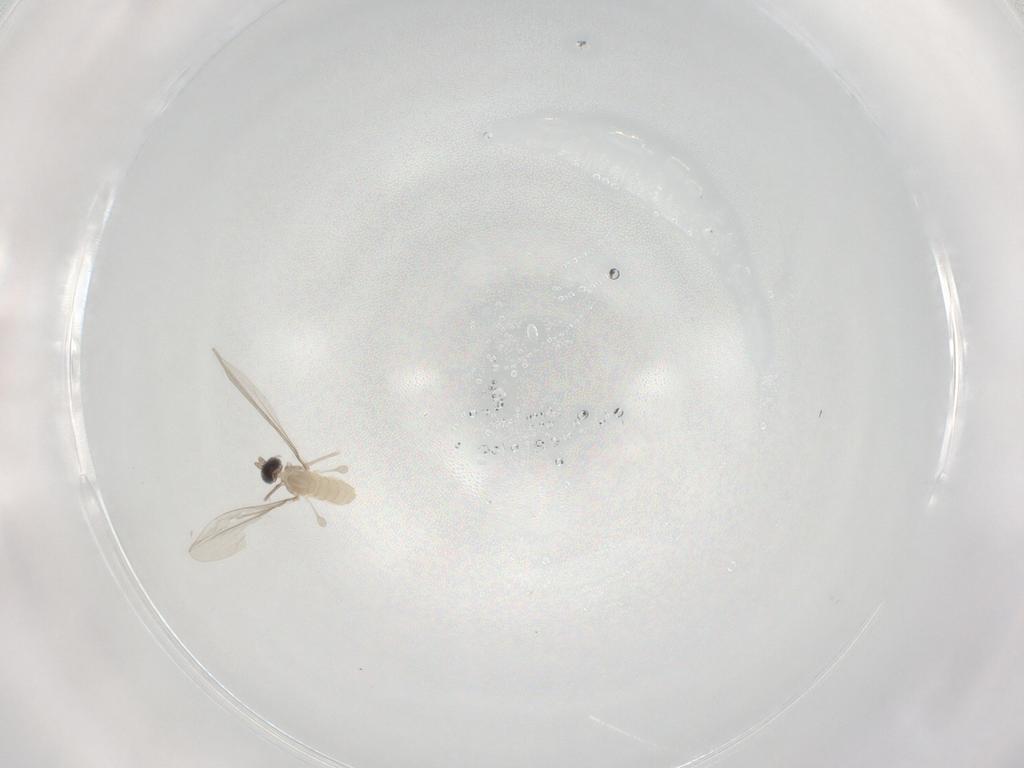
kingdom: Animalia
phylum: Arthropoda
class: Insecta
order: Diptera
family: Cecidomyiidae
